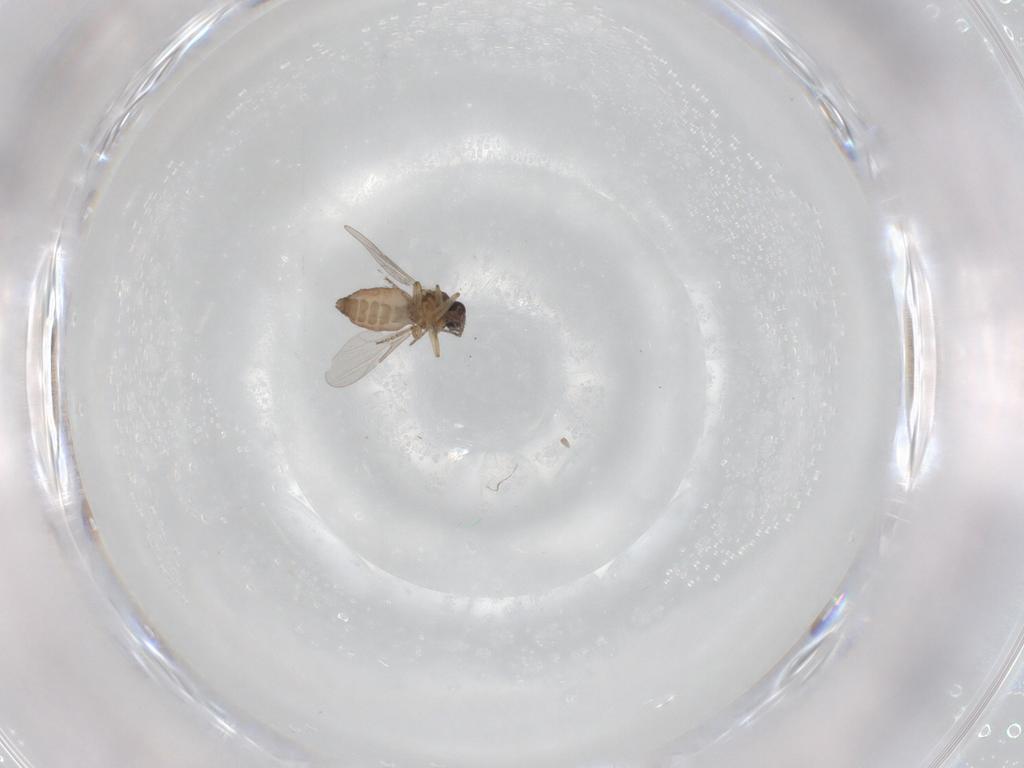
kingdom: Animalia
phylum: Arthropoda
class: Insecta
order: Diptera
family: Ceratopogonidae
